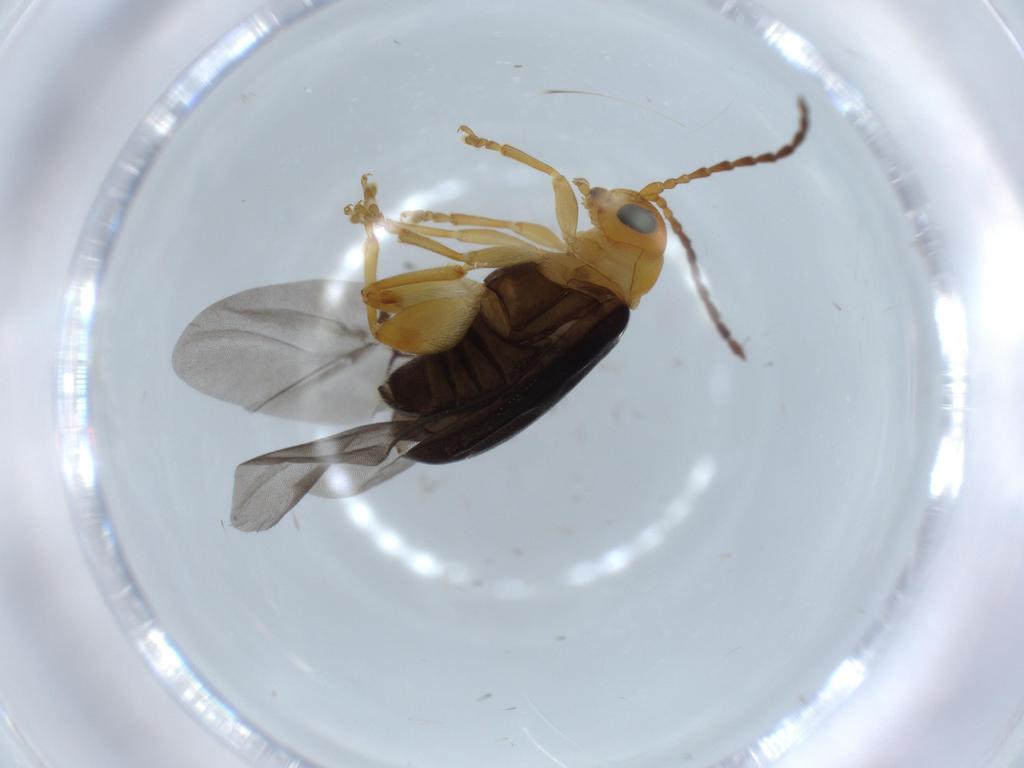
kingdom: Animalia
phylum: Arthropoda
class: Insecta
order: Coleoptera
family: Chrysomelidae
